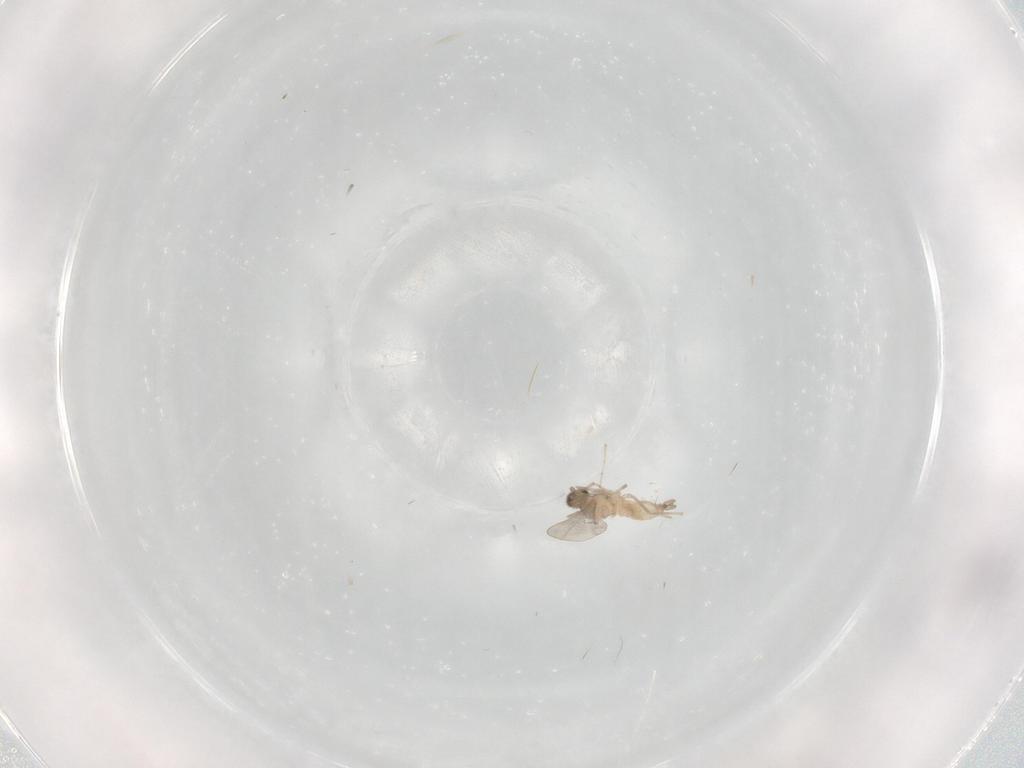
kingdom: Animalia
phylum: Arthropoda
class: Insecta
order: Diptera
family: Cecidomyiidae
